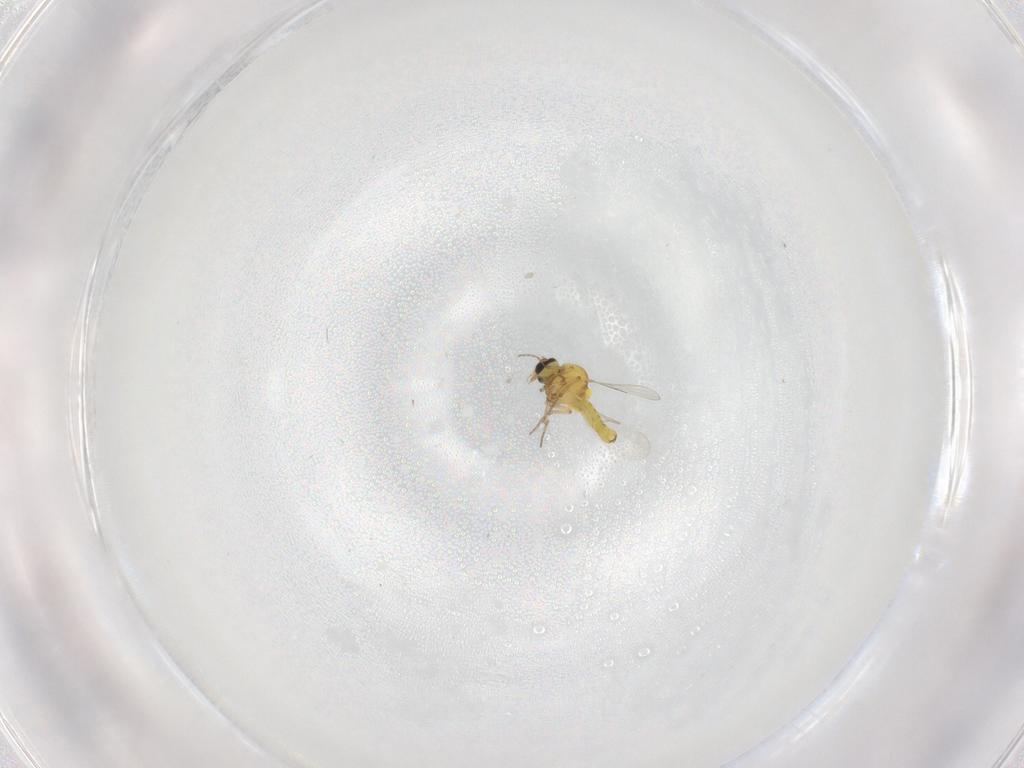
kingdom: Animalia
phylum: Arthropoda
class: Insecta
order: Diptera
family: Ceratopogonidae
